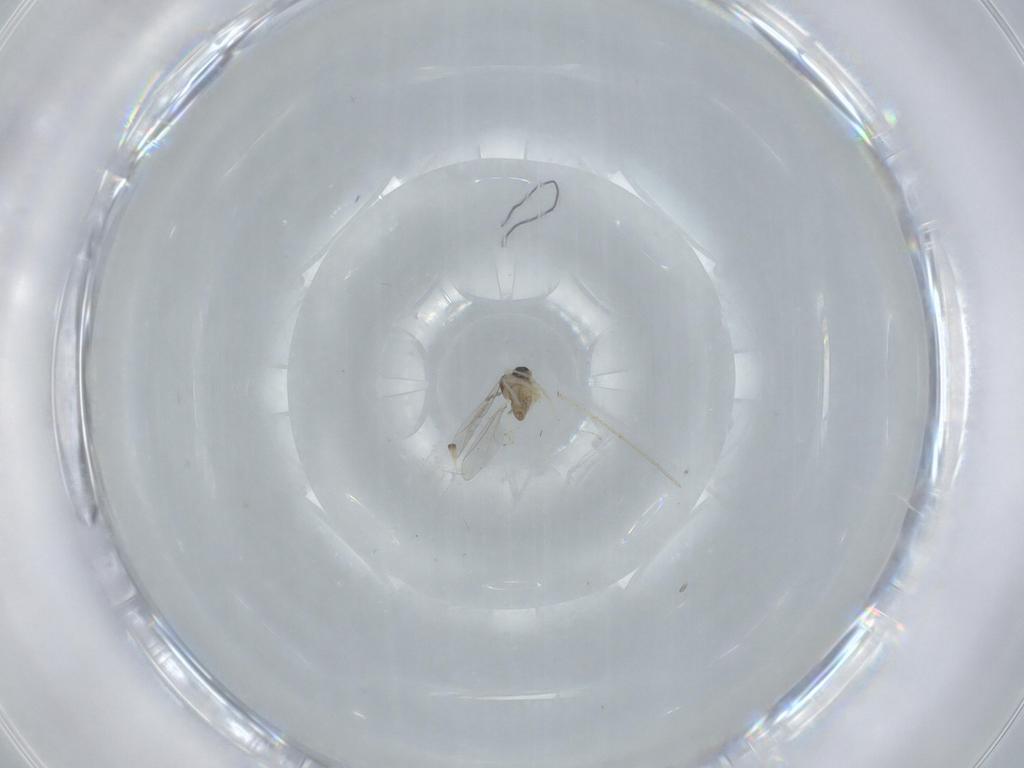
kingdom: Animalia
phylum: Arthropoda
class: Insecta
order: Diptera
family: Cecidomyiidae
